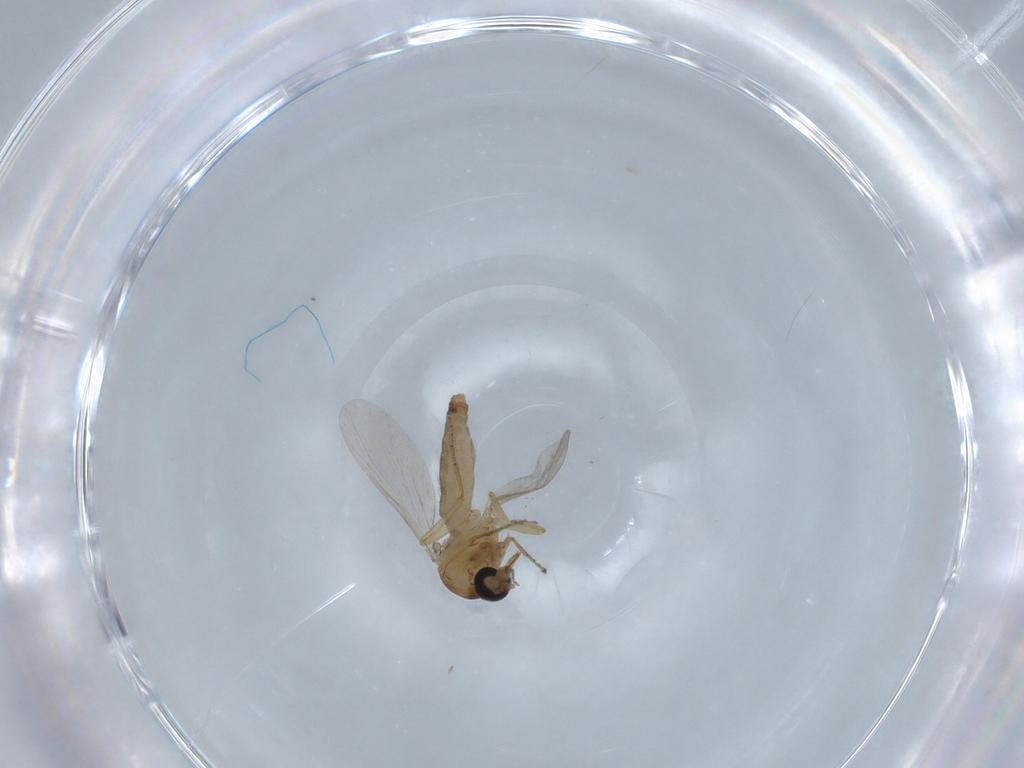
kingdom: Animalia
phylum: Arthropoda
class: Insecta
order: Diptera
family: Ceratopogonidae
